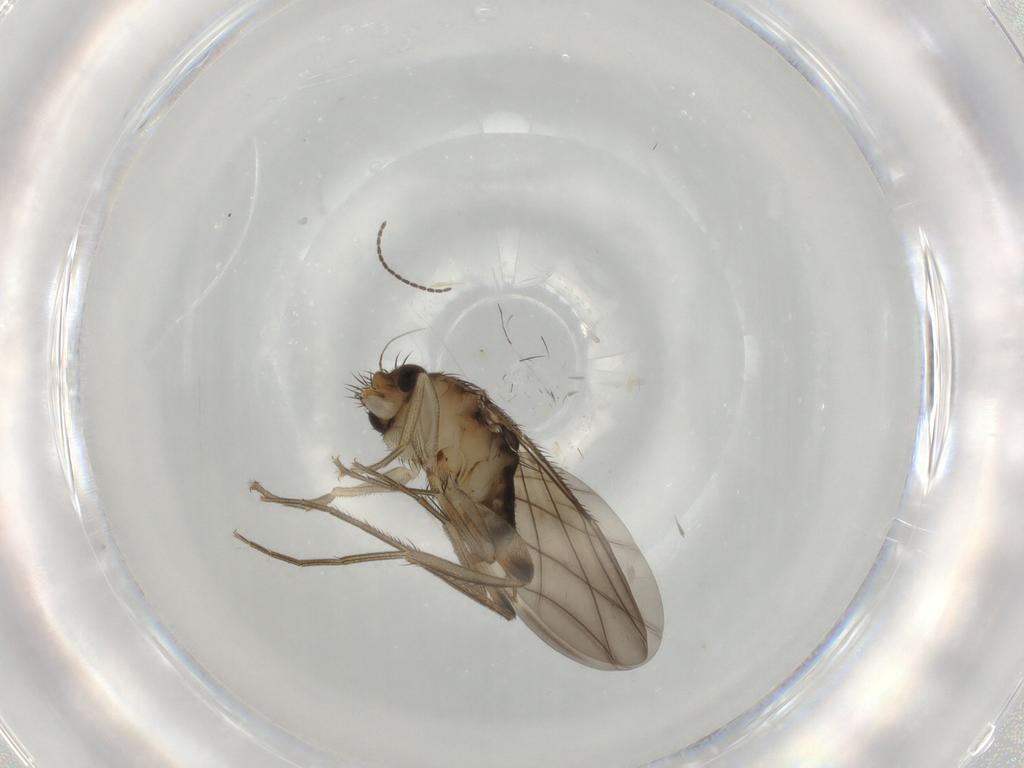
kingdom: Animalia
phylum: Arthropoda
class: Insecta
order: Diptera
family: Phoridae
